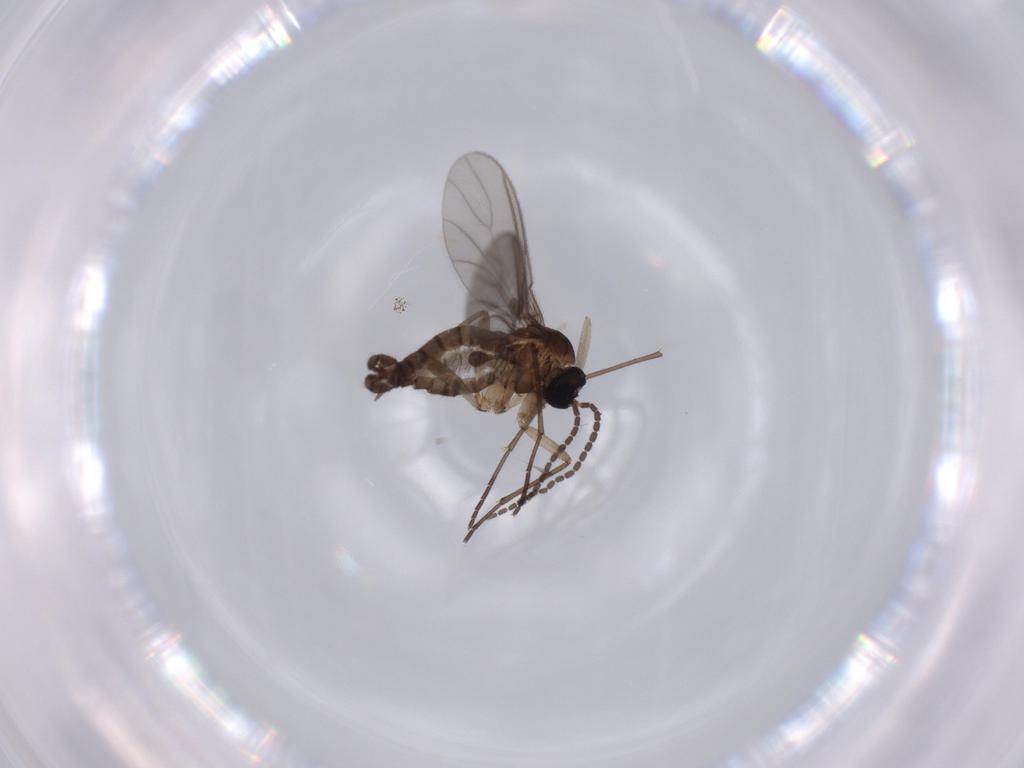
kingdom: Animalia
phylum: Arthropoda
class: Insecta
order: Diptera
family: Sciaridae
